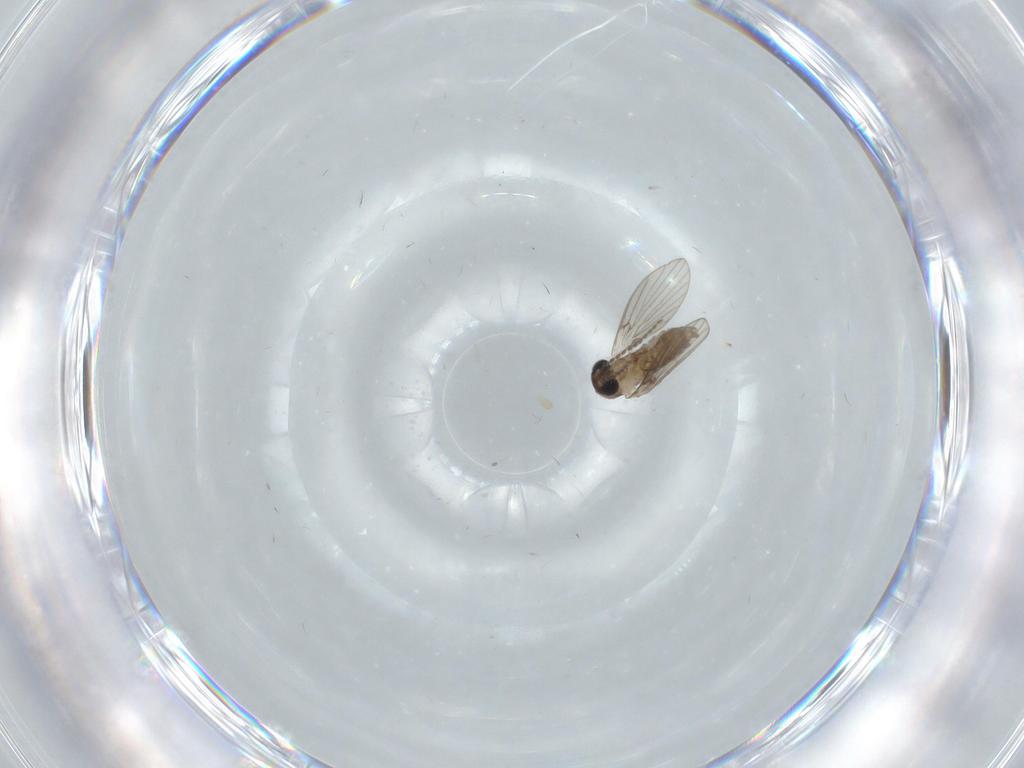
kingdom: Animalia
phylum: Arthropoda
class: Insecta
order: Diptera
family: Psychodidae
